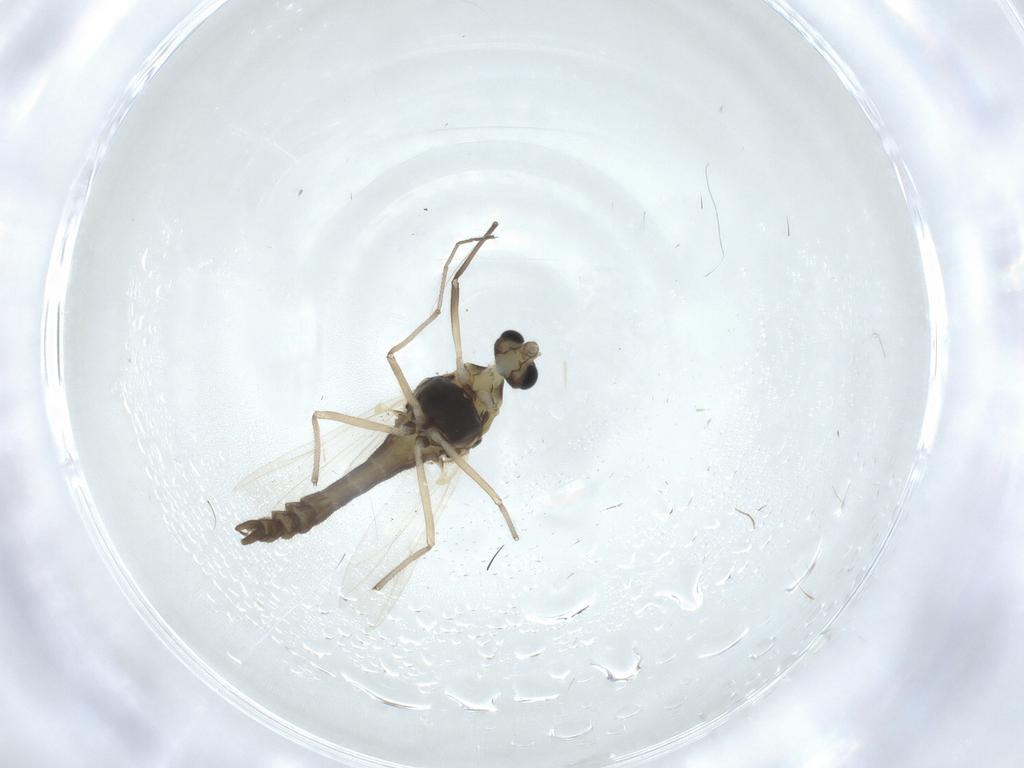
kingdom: Animalia
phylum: Arthropoda
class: Insecta
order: Diptera
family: Chironomidae
